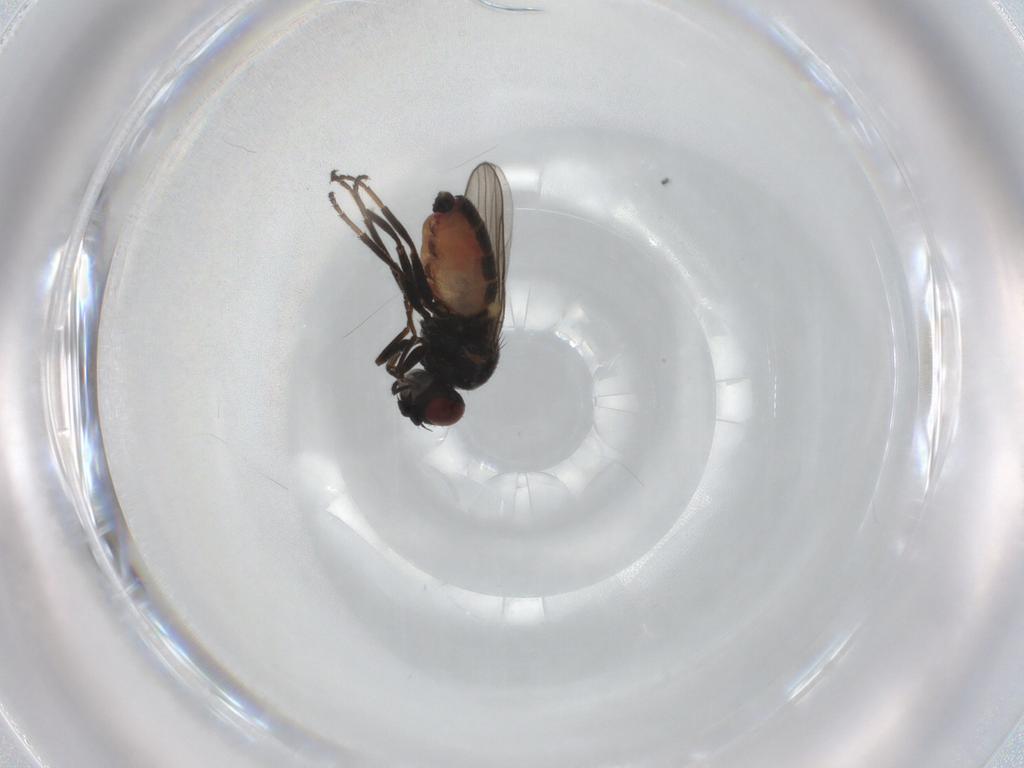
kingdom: Animalia
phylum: Arthropoda
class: Insecta
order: Diptera
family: Chloropidae
